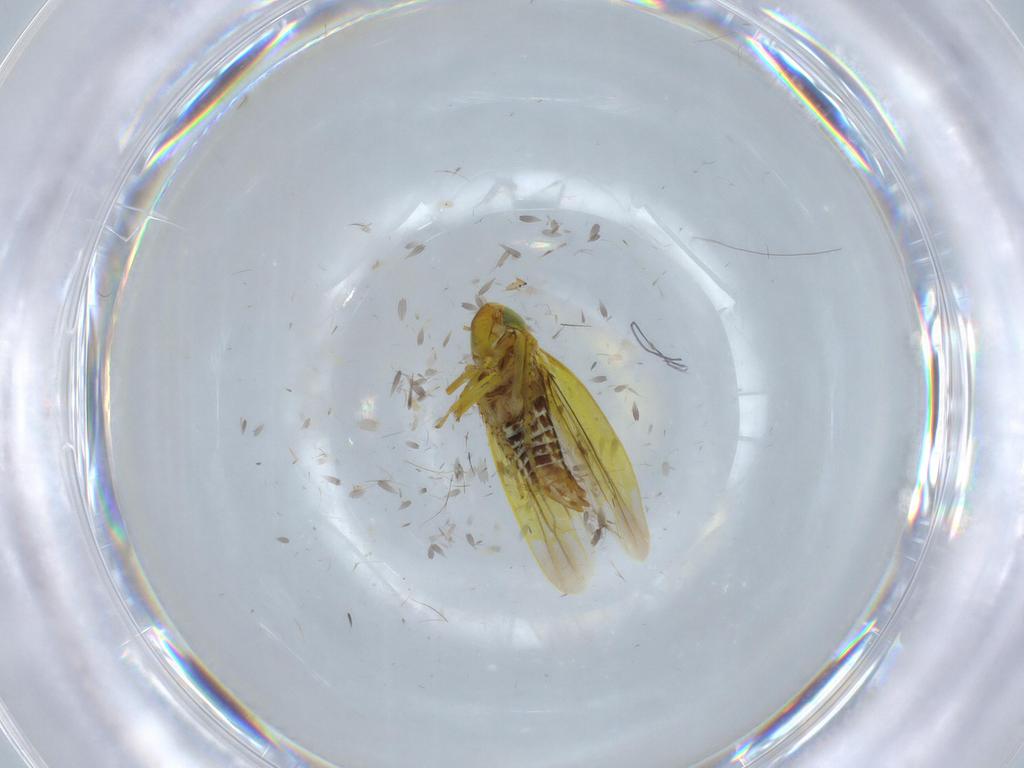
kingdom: Animalia
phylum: Arthropoda
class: Insecta
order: Hemiptera
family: Cicadellidae
